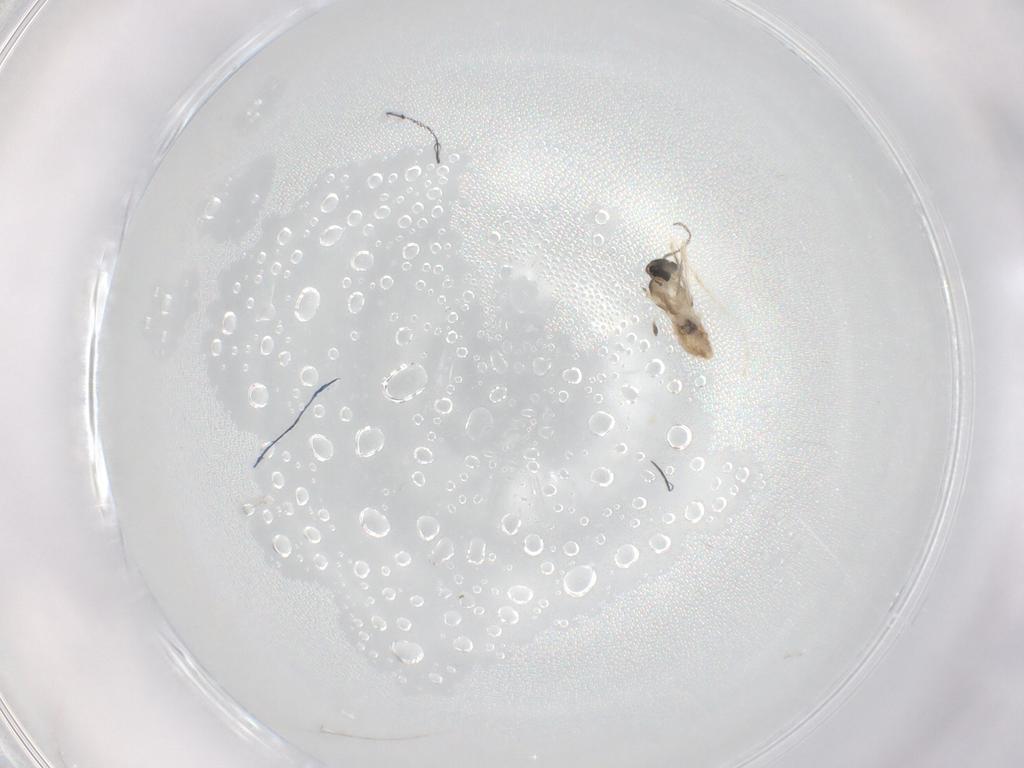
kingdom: Animalia
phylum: Arthropoda
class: Insecta
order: Diptera
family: Cecidomyiidae
